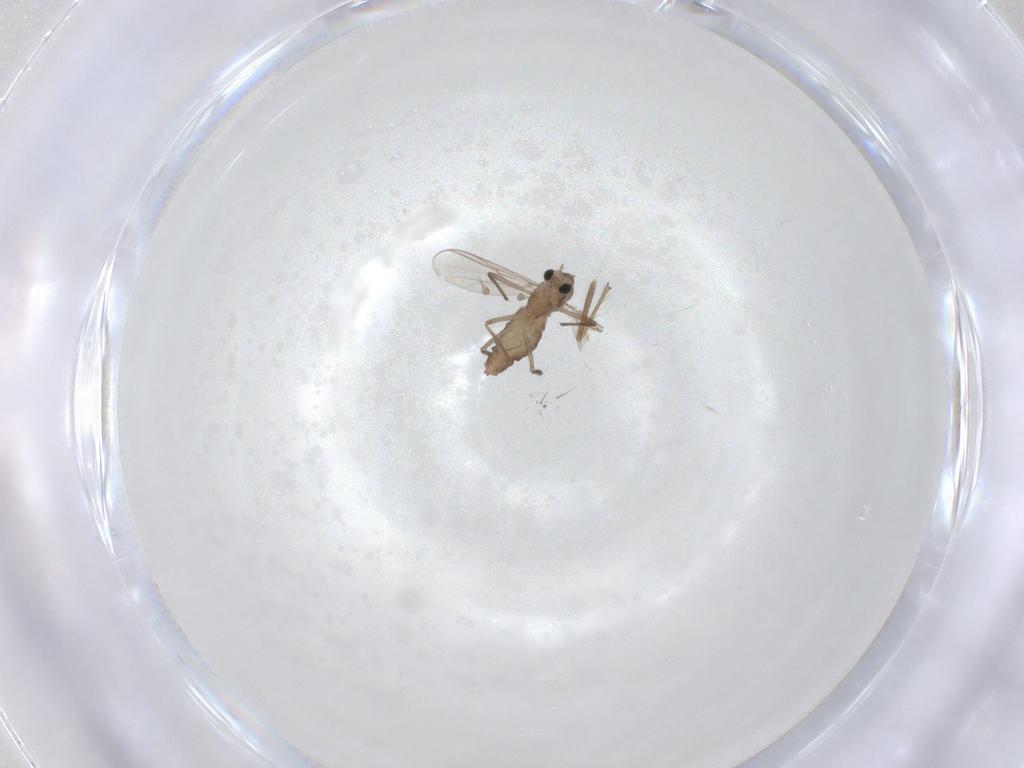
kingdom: Animalia
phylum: Arthropoda
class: Insecta
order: Diptera
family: Chironomidae
